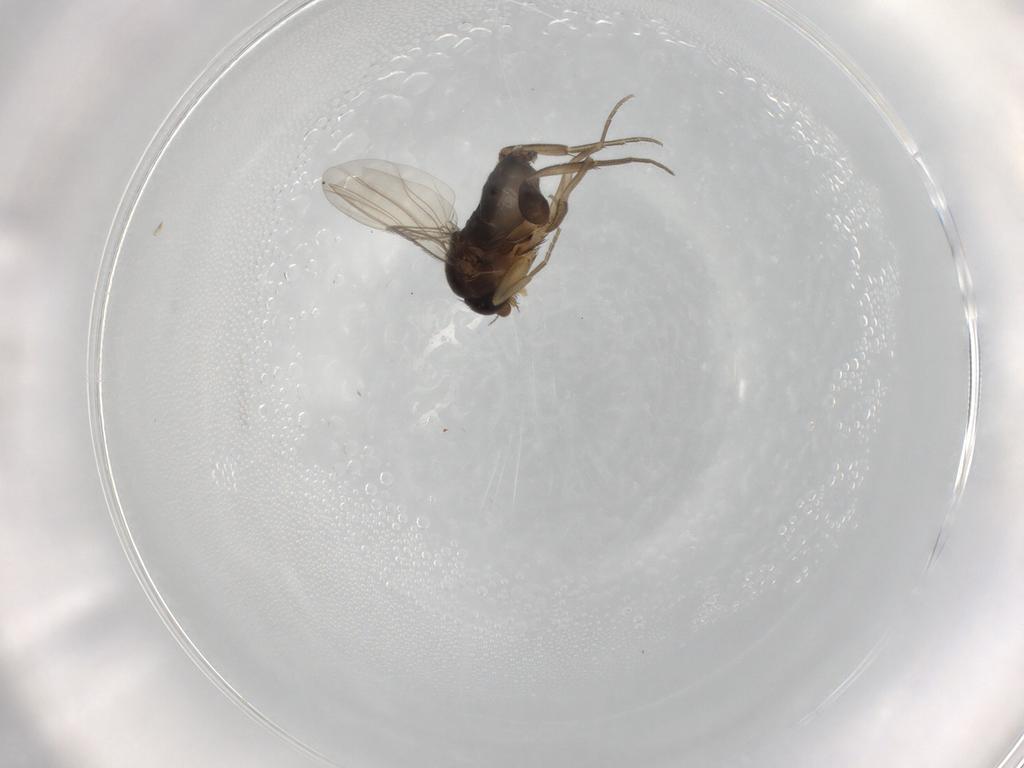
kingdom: Animalia
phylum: Arthropoda
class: Insecta
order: Diptera
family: Phoridae
